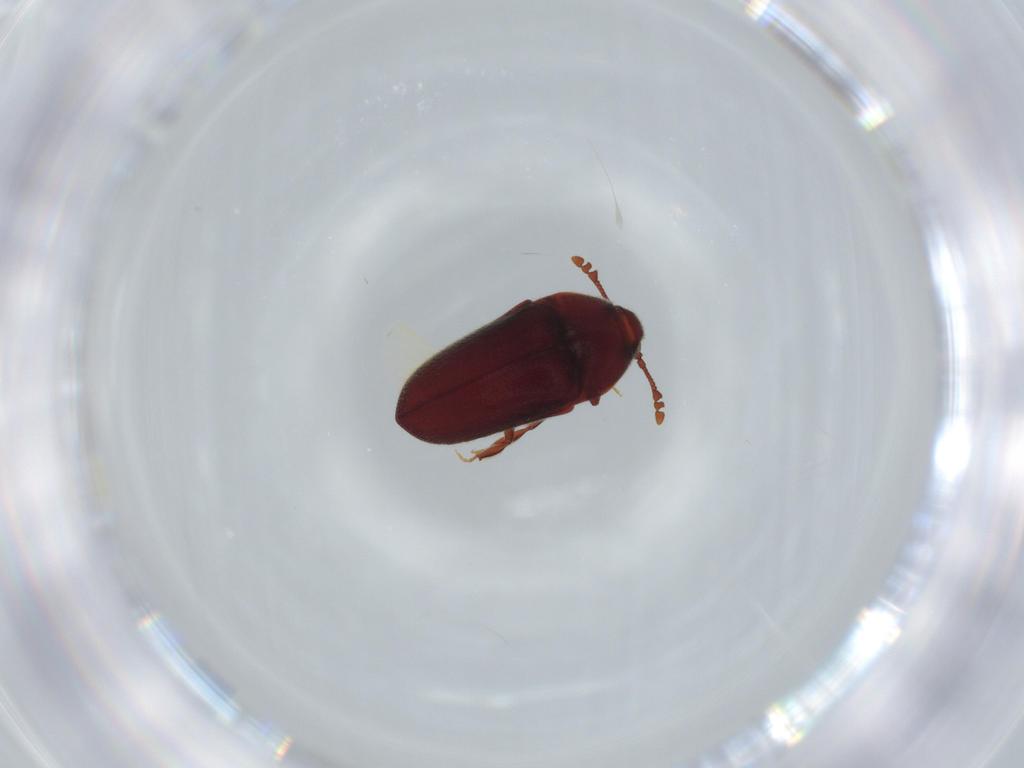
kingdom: Animalia
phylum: Arthropoda
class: Insecta
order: Coleoptera
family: Throscidae
